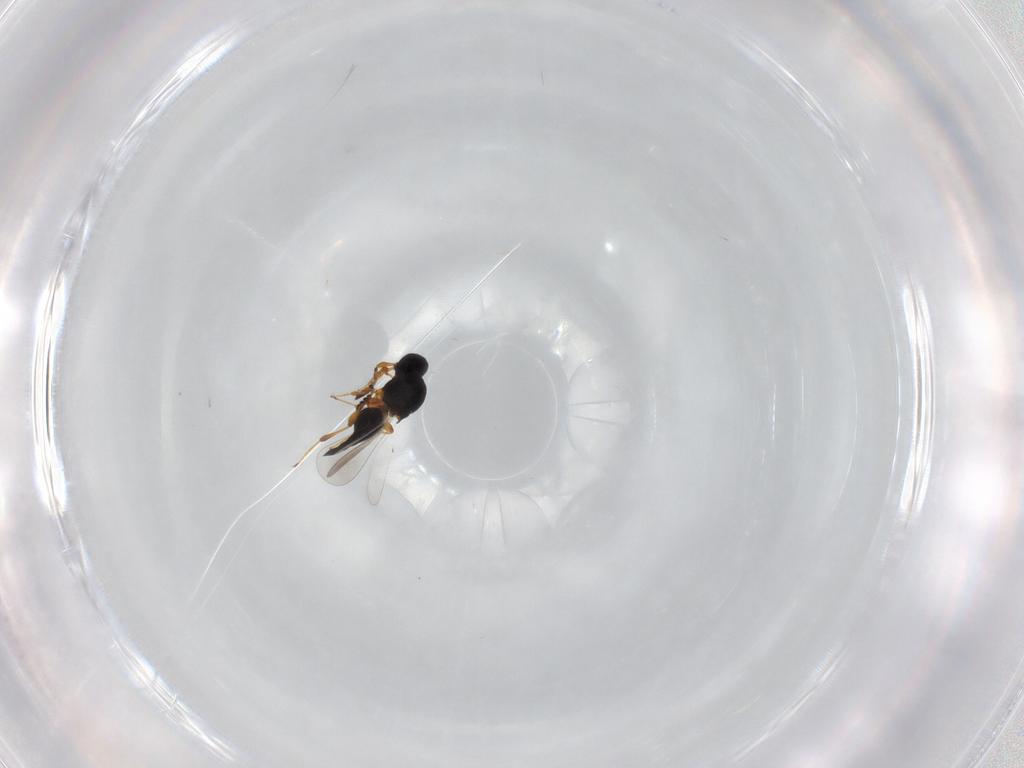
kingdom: Animalia
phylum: Arthropoda
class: Insecta
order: Hymenoptera
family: Platygastridae
